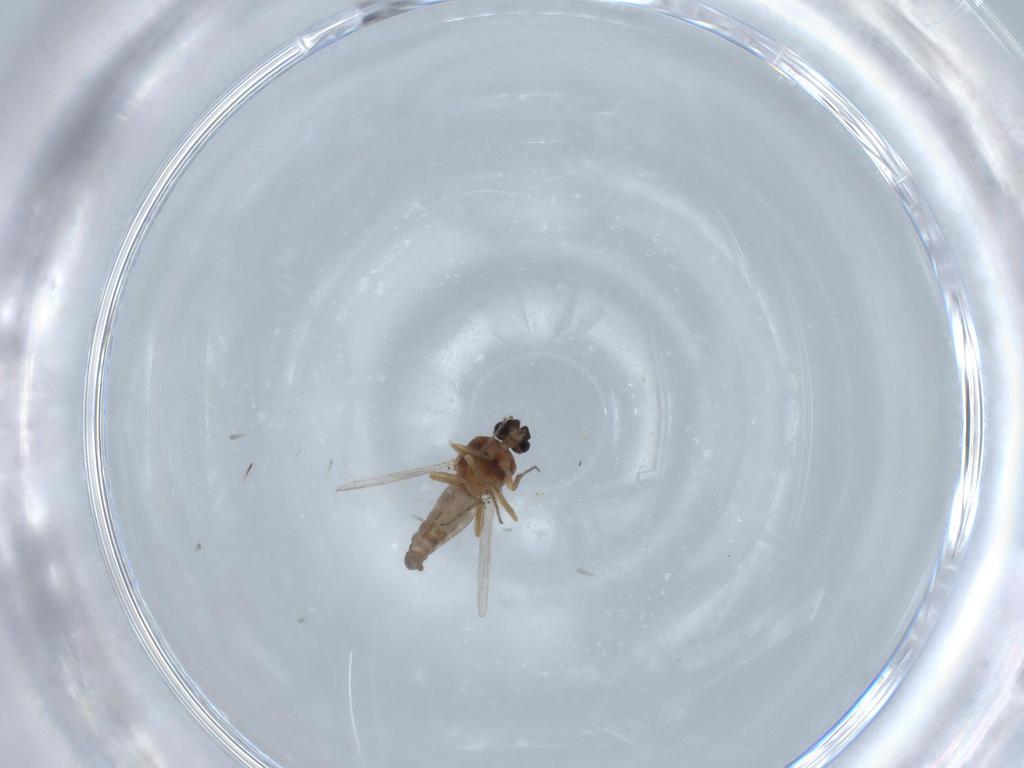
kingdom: Animalia
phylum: Arthropoda
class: Insecta
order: Diptera
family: Ceratopogonidae
